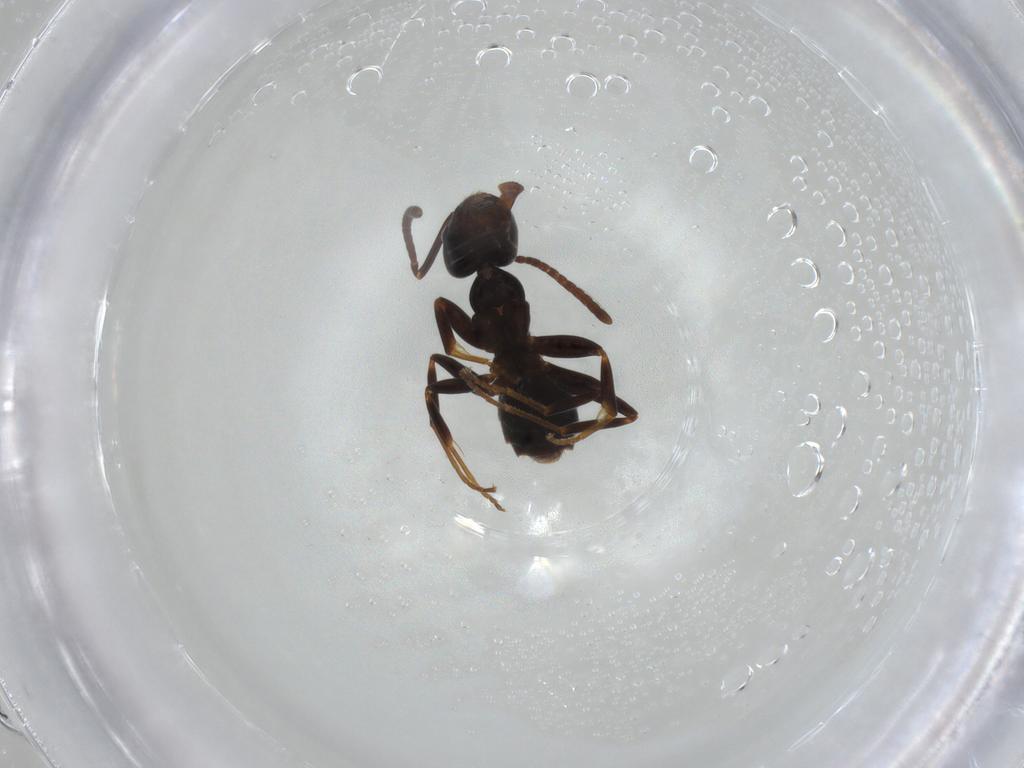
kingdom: Animalia
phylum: Arthropoda
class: Insecta
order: Hymenoptera
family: Formicidae
